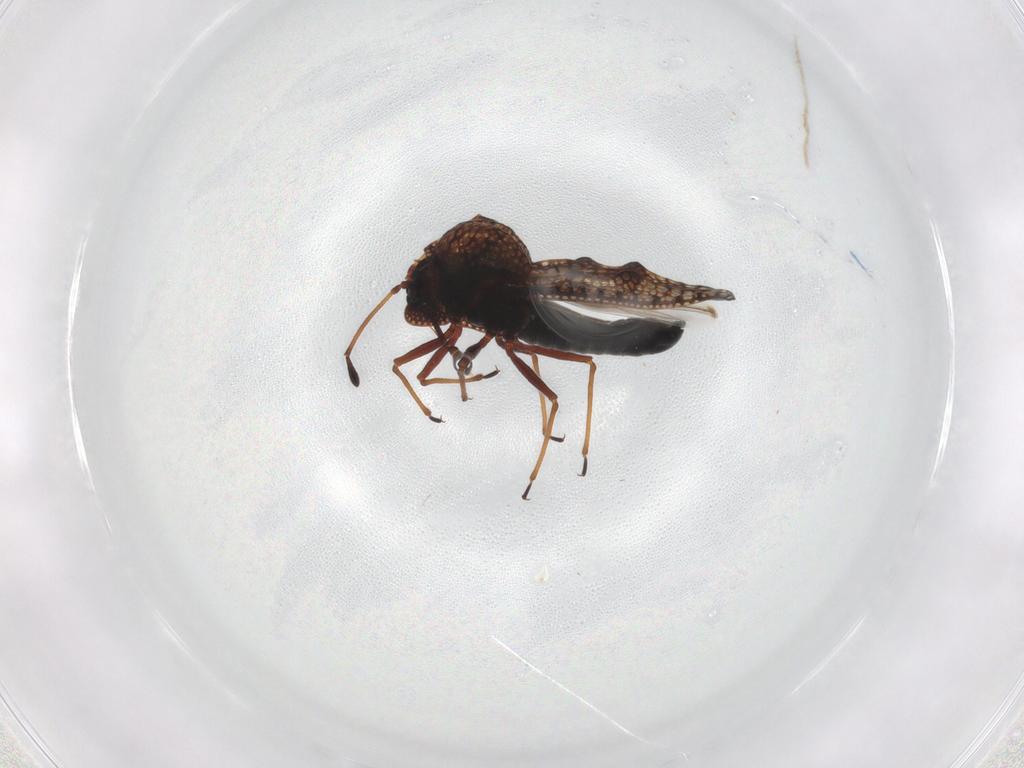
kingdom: Animalia
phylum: Arthropoda
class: Insecta
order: Hemiptera
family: Tingidae
